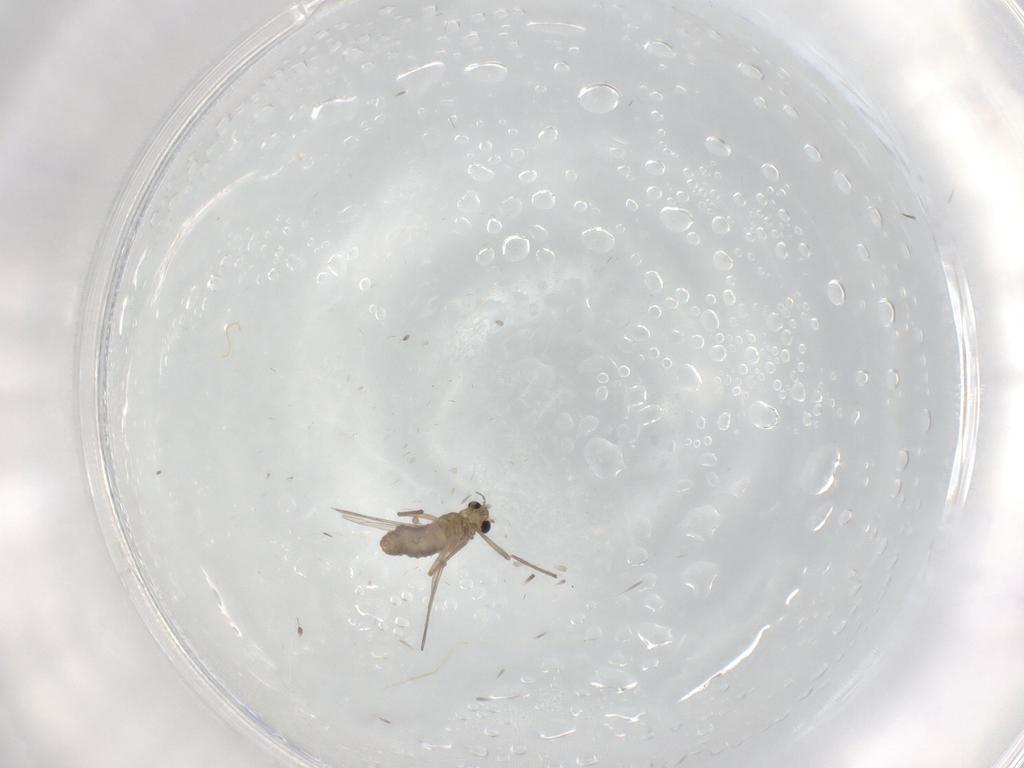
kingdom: Animalia
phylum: Arthropoda
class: Insecta
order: Diptera
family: Chironomidae
